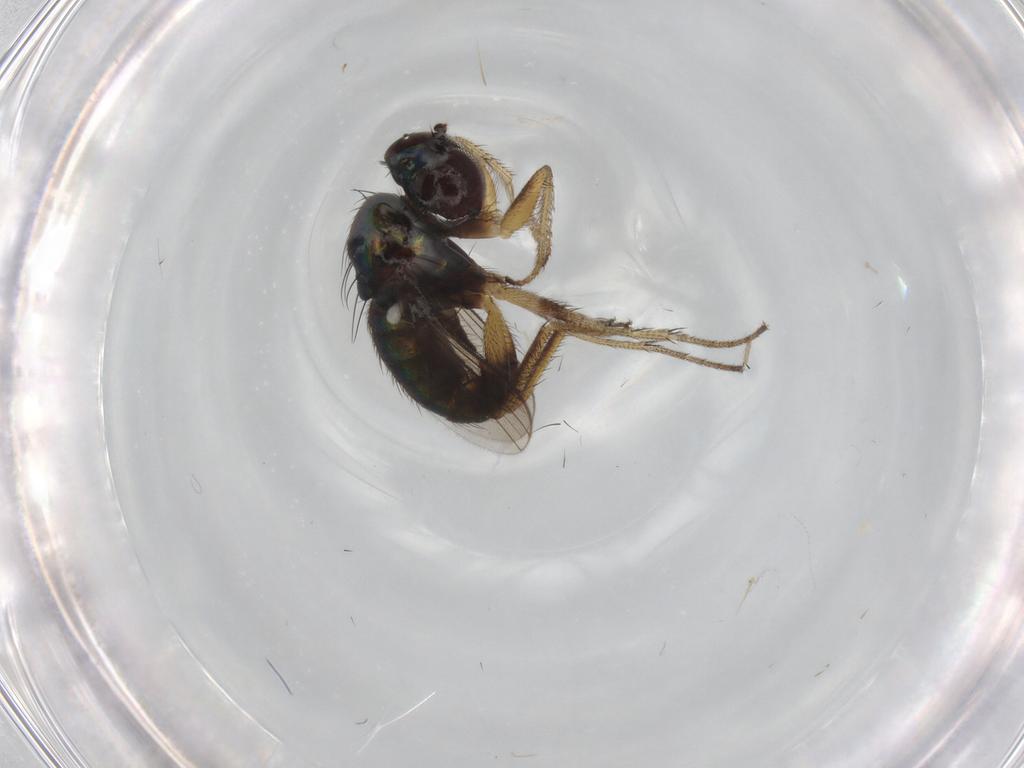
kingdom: Animalia
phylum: Arthropoda
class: Insecta
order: Diptera
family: Dolichopodidae
